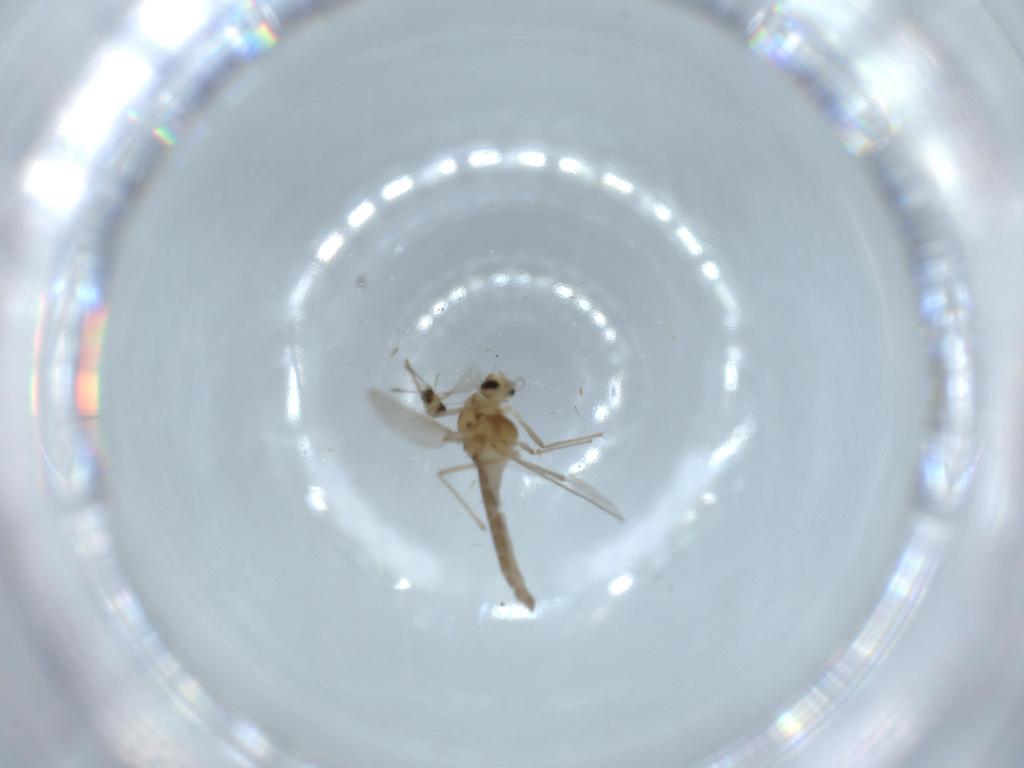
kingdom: Animalia
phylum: Arthropoda
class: Insecta
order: Diptera
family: Chironomidae
